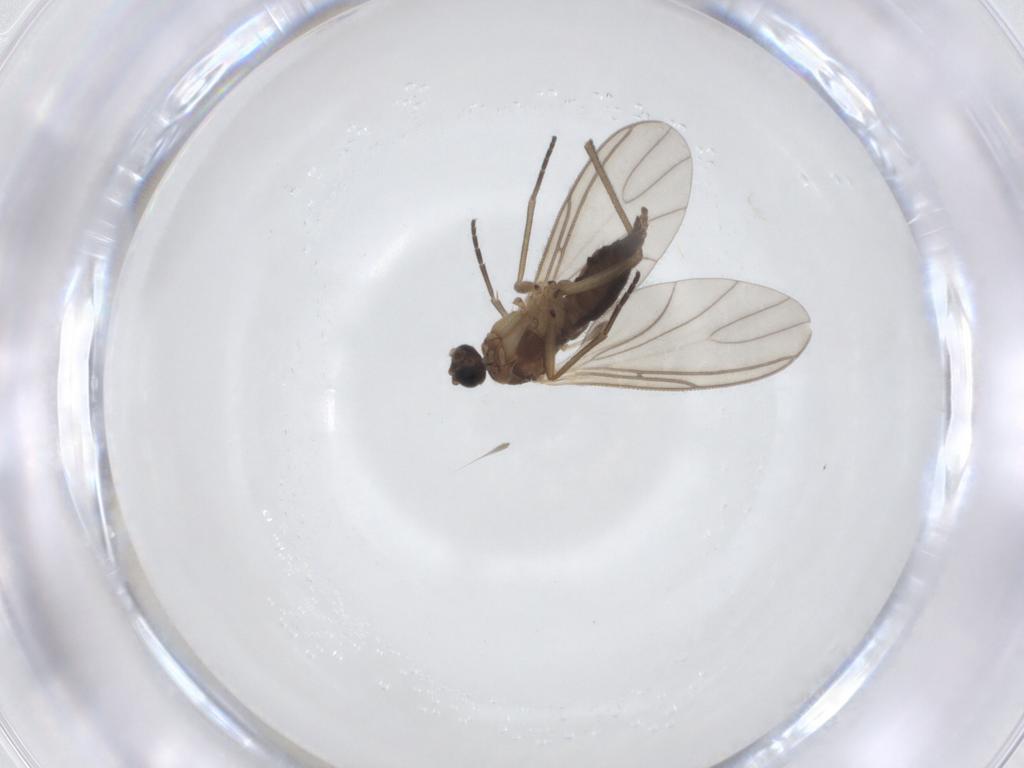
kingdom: Animalia
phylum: Arthropoda
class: Insecta
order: Diptera
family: Sciaridae
